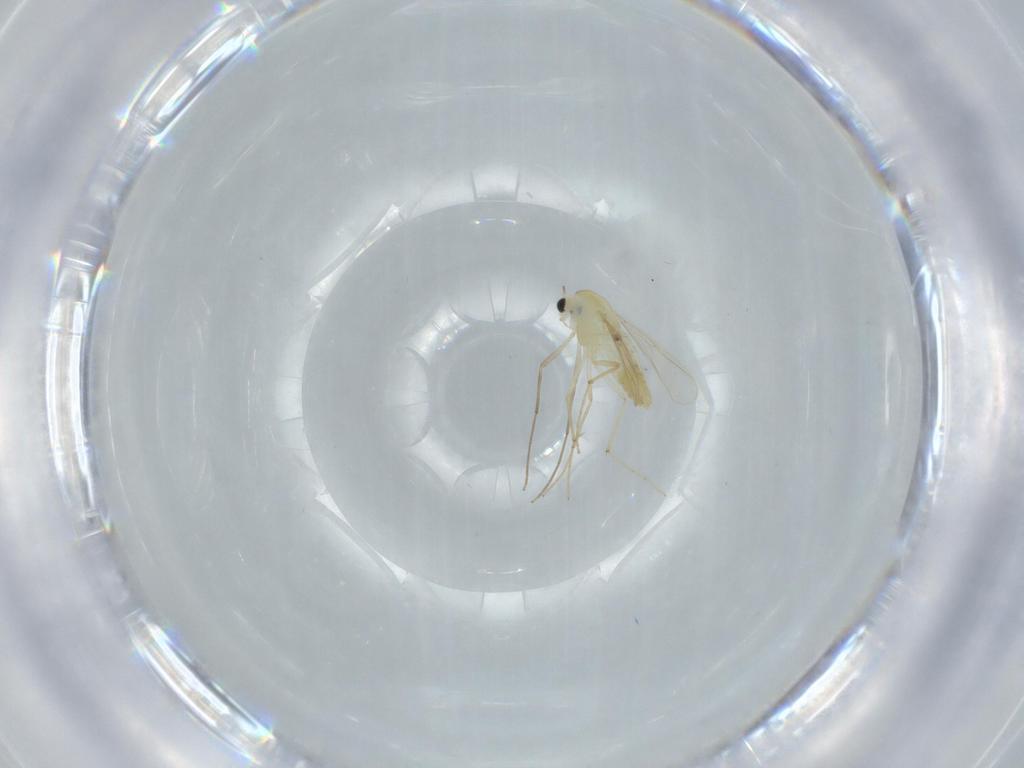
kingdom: Animalia
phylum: Arthropoda
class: Insecta
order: Diptera
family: Chironomidae
